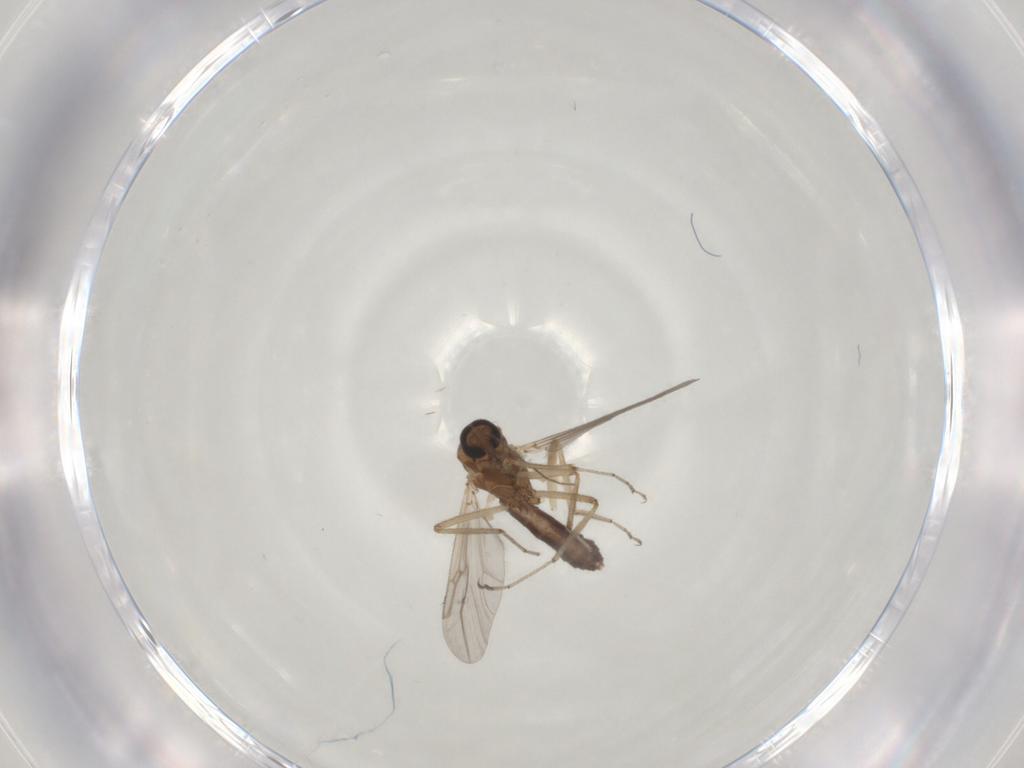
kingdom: Animalia
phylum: Arthropoda
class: Insecta
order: Diptera
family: Ceratopogonidae
